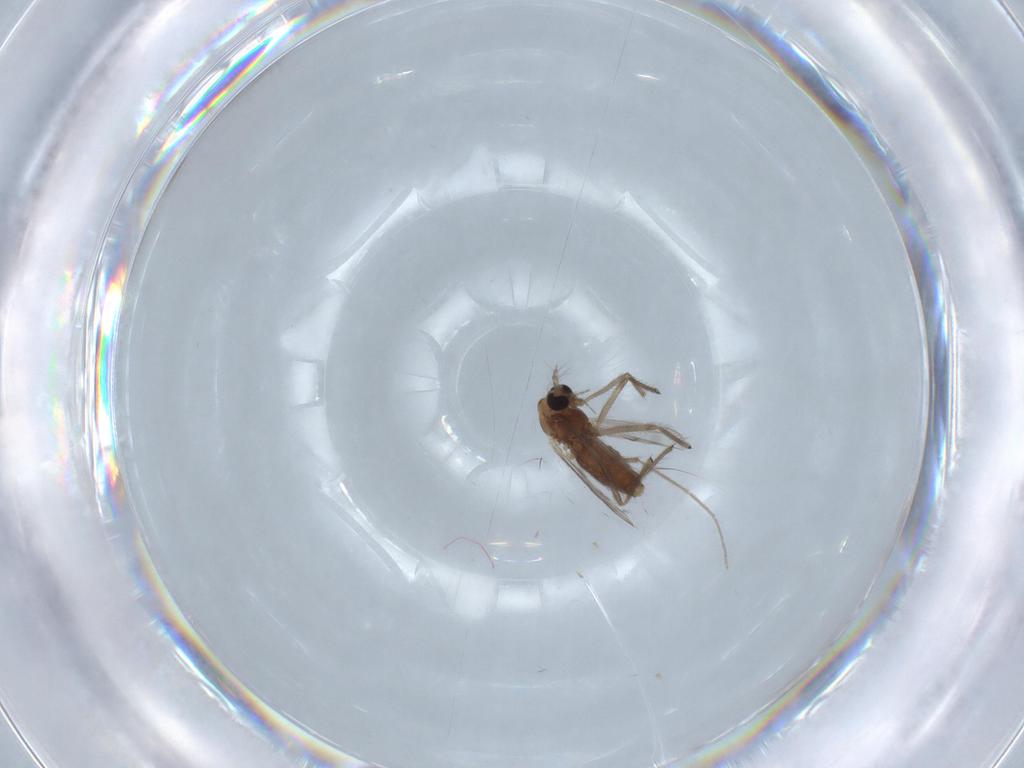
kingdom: Animalia
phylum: Arthropoda
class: Insecta
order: Diptera
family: Chironomidae
